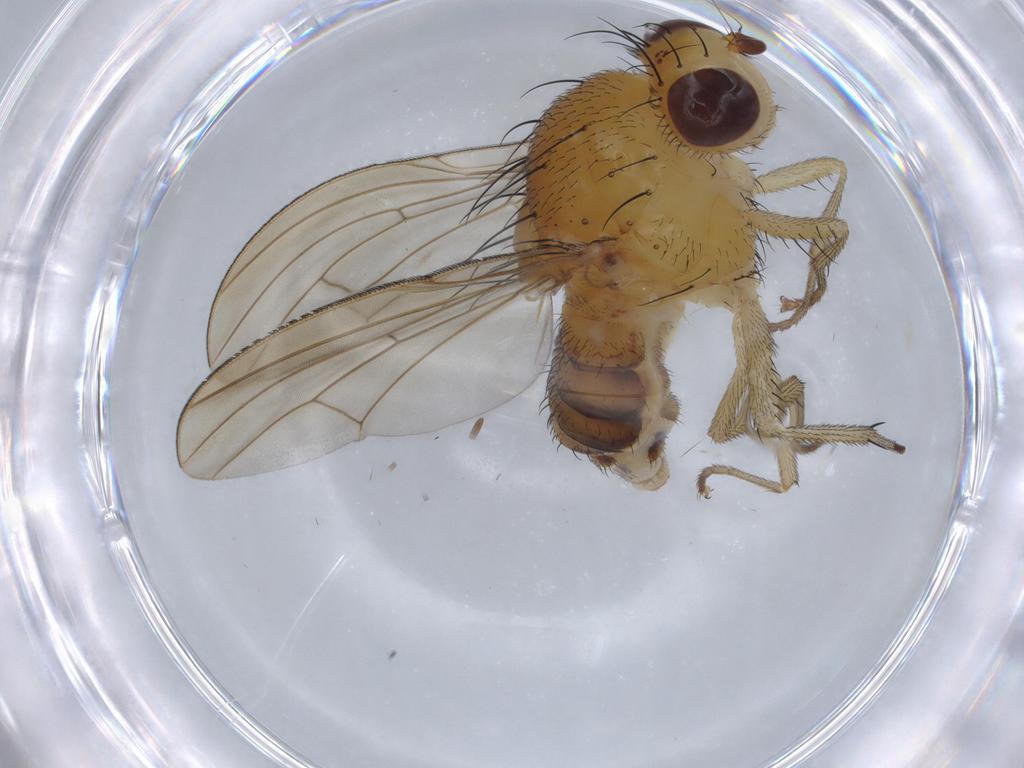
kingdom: Animalia
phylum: Arthropoda
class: Insecta
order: Diptera
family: Lauxaniidae
